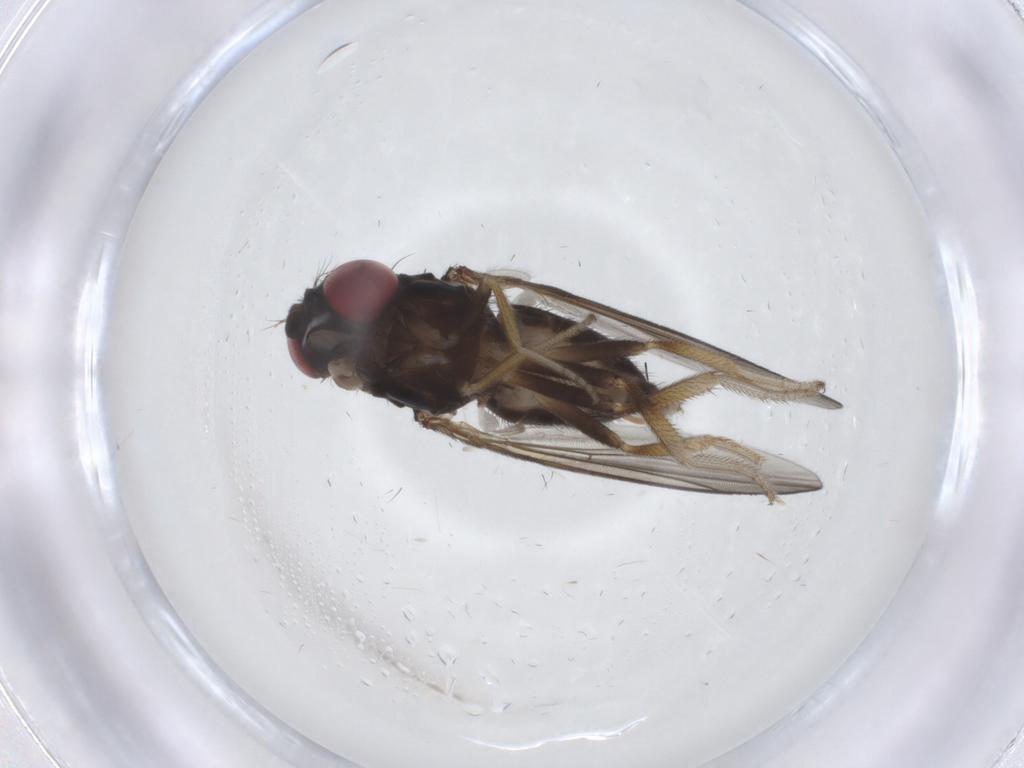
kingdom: Animalia
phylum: Arthropoda
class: Insecta
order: Diptera
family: Drosophilidae
